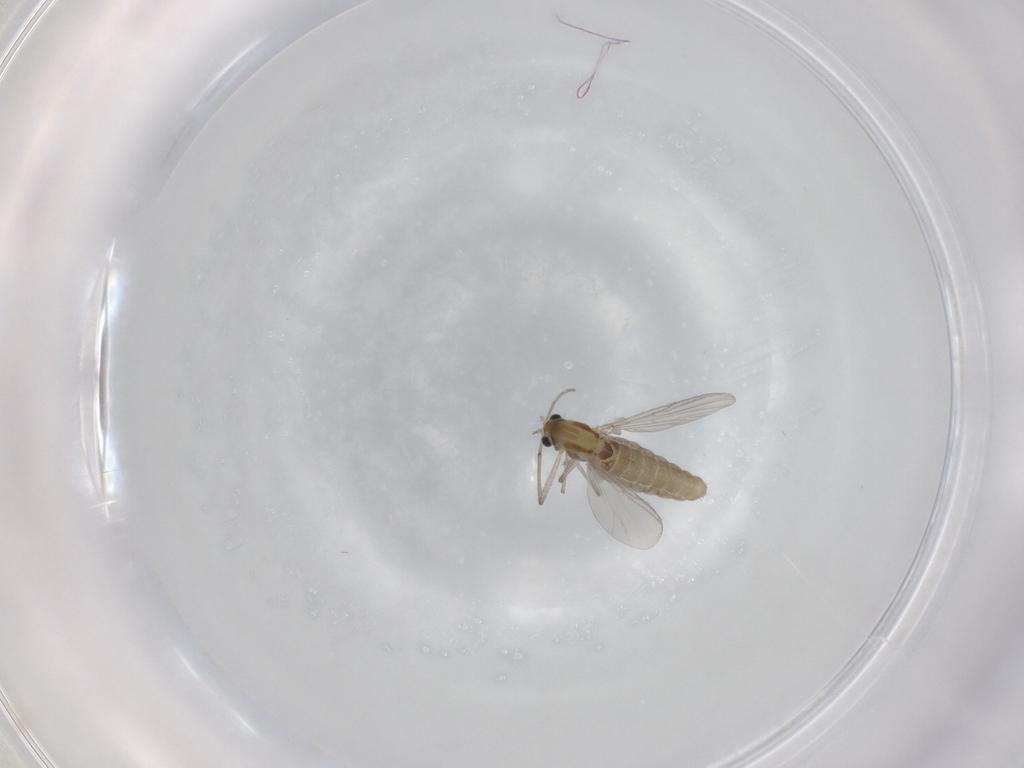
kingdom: Animalia
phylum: Arthropoda
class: Insecta
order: Diptera
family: Chironomidae
